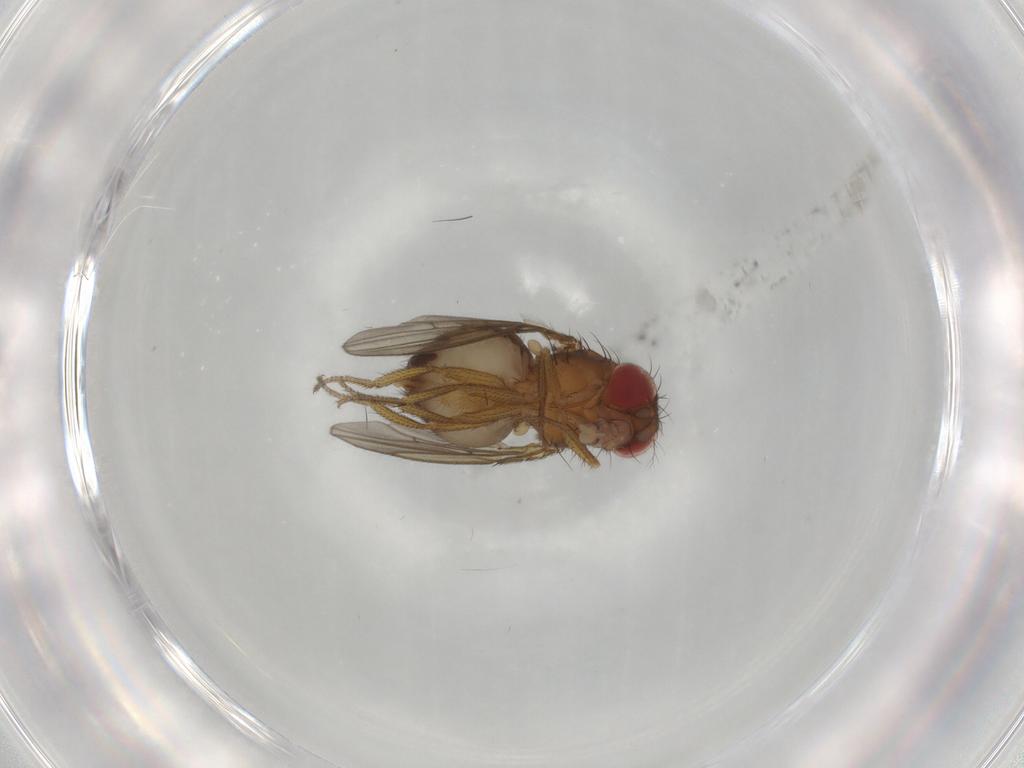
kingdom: Animalia
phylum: Arthropoda
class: Insecta
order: Diptera
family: Drosophilidae
